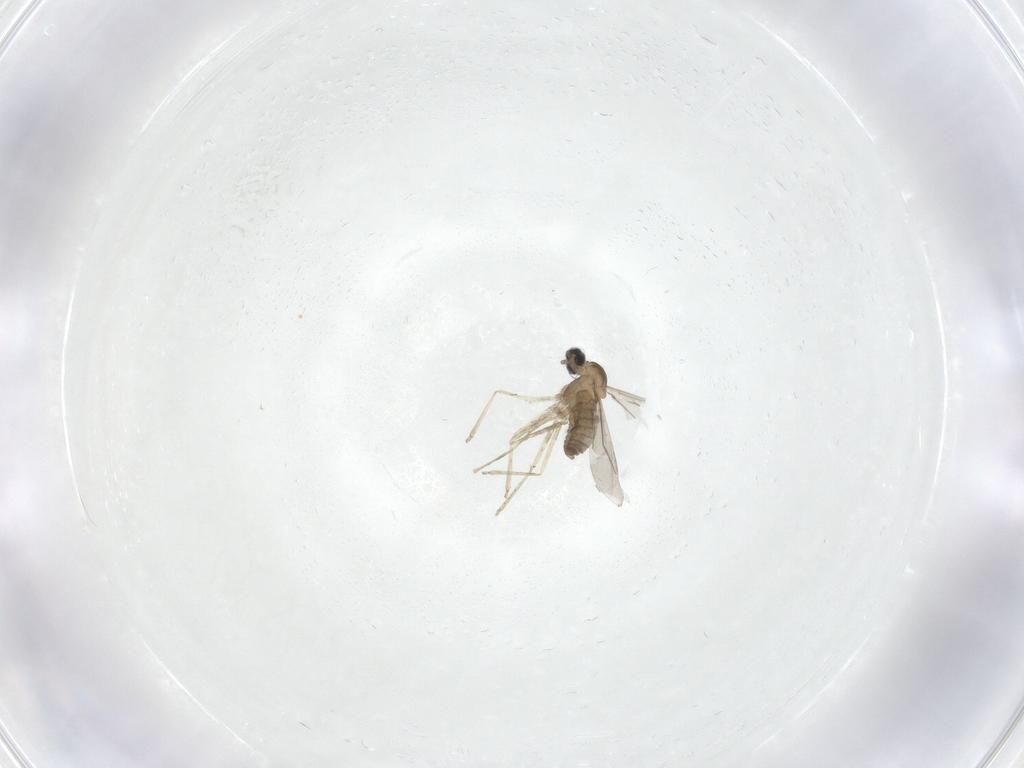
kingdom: Animalia
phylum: Arthropoda
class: Insecta
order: Diptera
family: Cecidomyiidae
